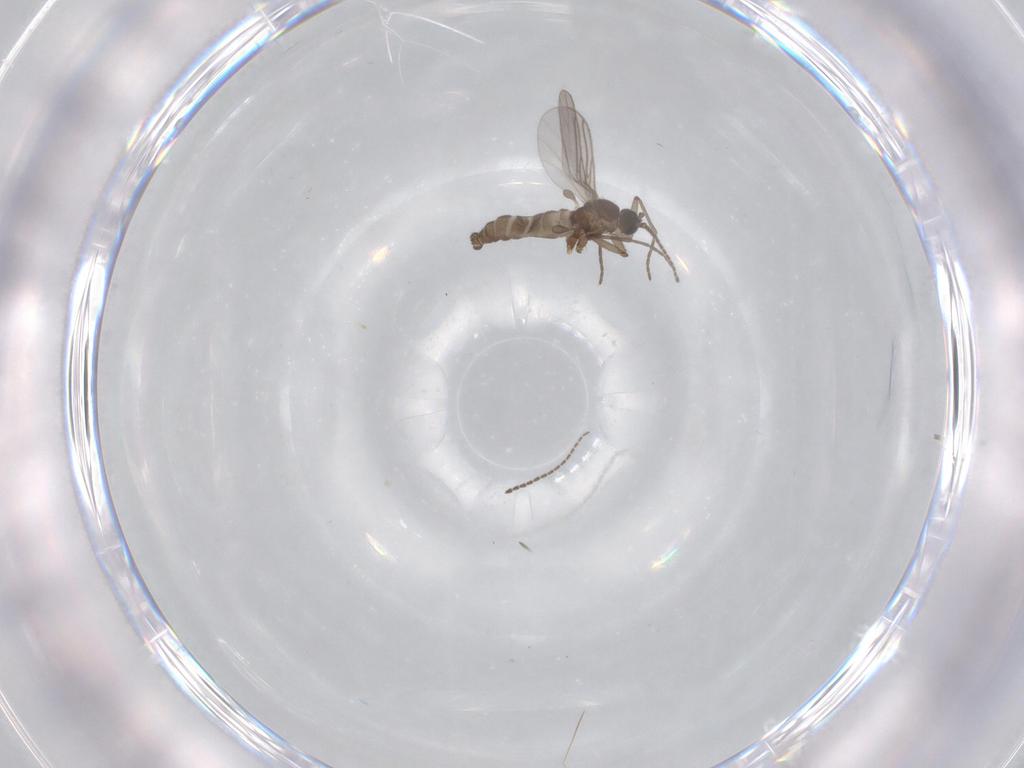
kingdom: Animalia
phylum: Arthropoda
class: Insecta
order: Diptera
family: Sciaridae
